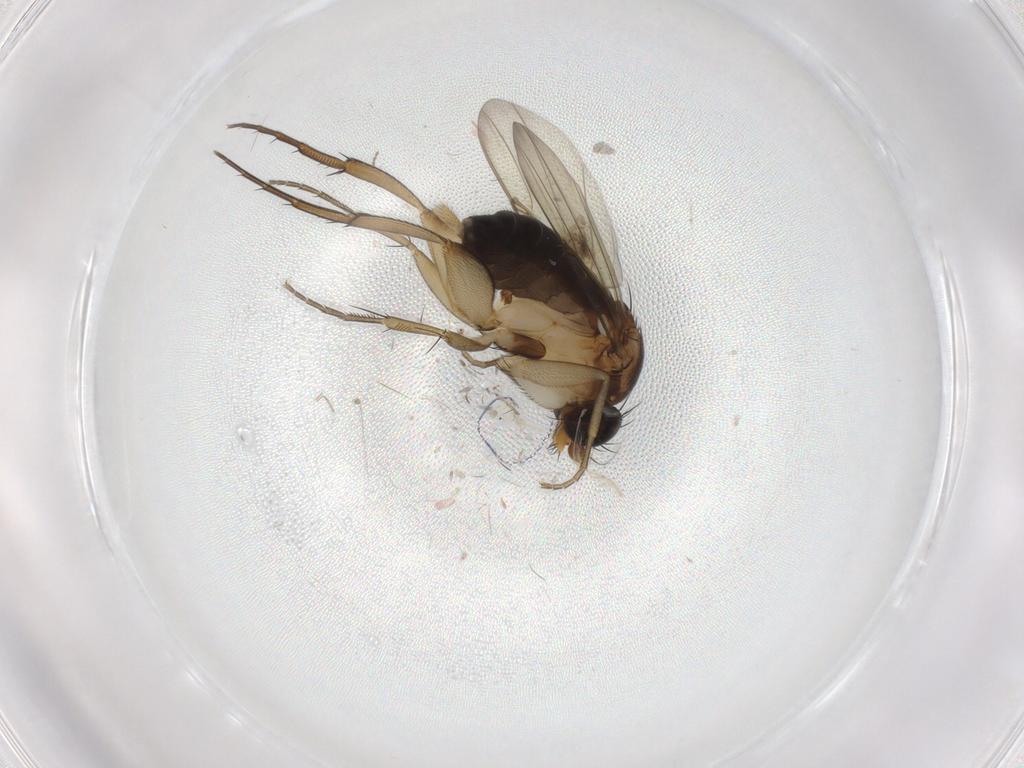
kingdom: Animalia
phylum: Arthropoda
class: Insecta
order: Diptera
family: Phoridae
